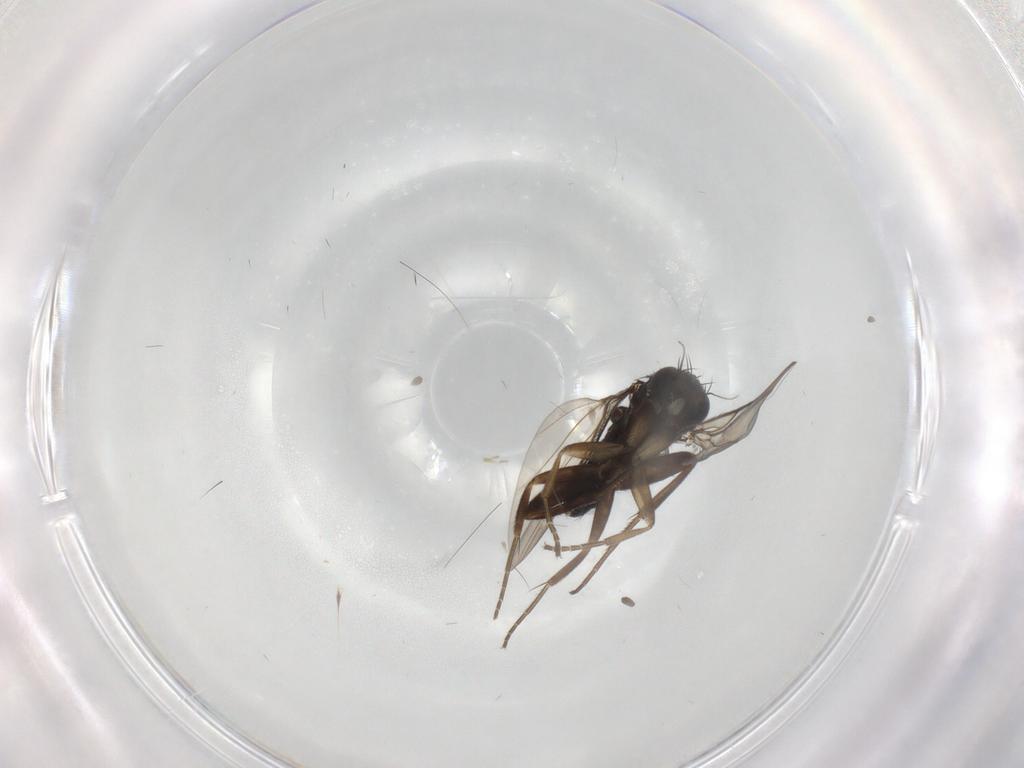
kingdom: Animalia
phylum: Arthropoda
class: Insecta
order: Diptera
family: Phoridae
